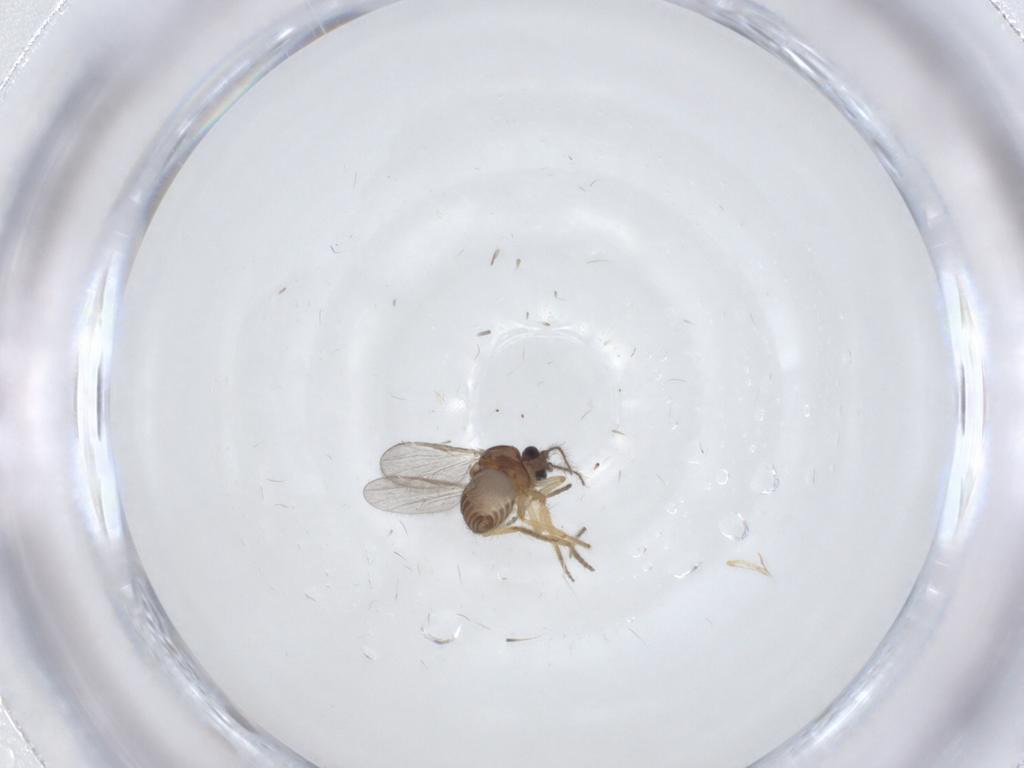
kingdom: Animalia
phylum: Arthropoda
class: Insecta
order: Diptera
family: Ceratopogonidae
